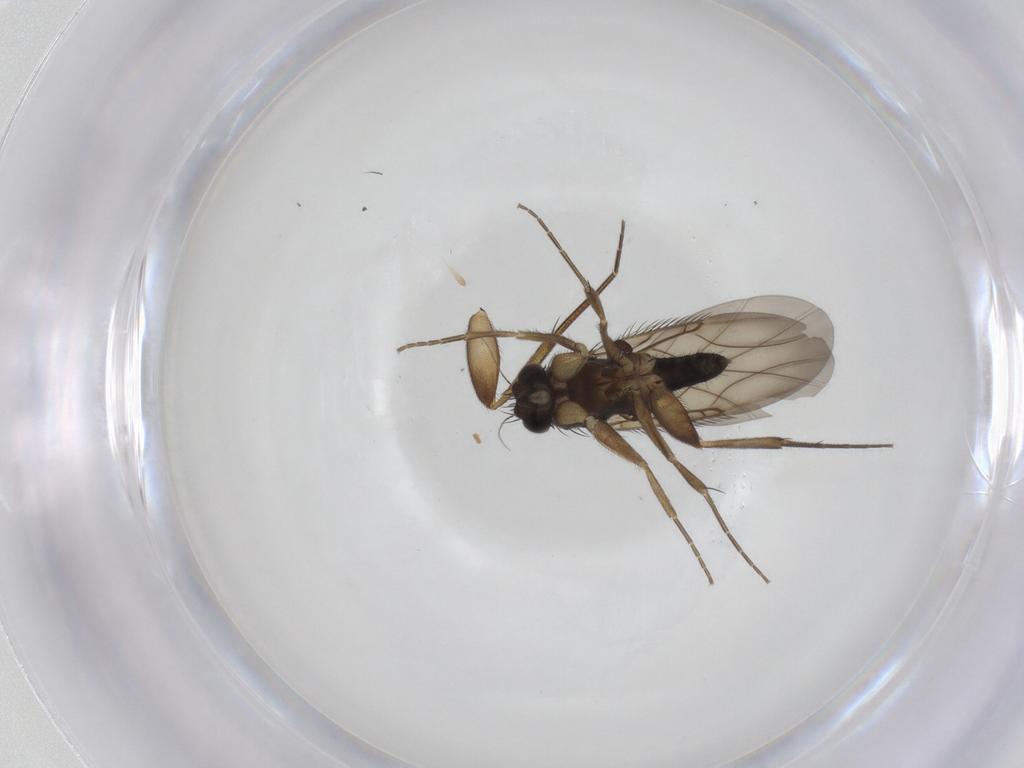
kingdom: Animalia
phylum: Arthropoda
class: Insecta
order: Diptera
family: Phoridae
